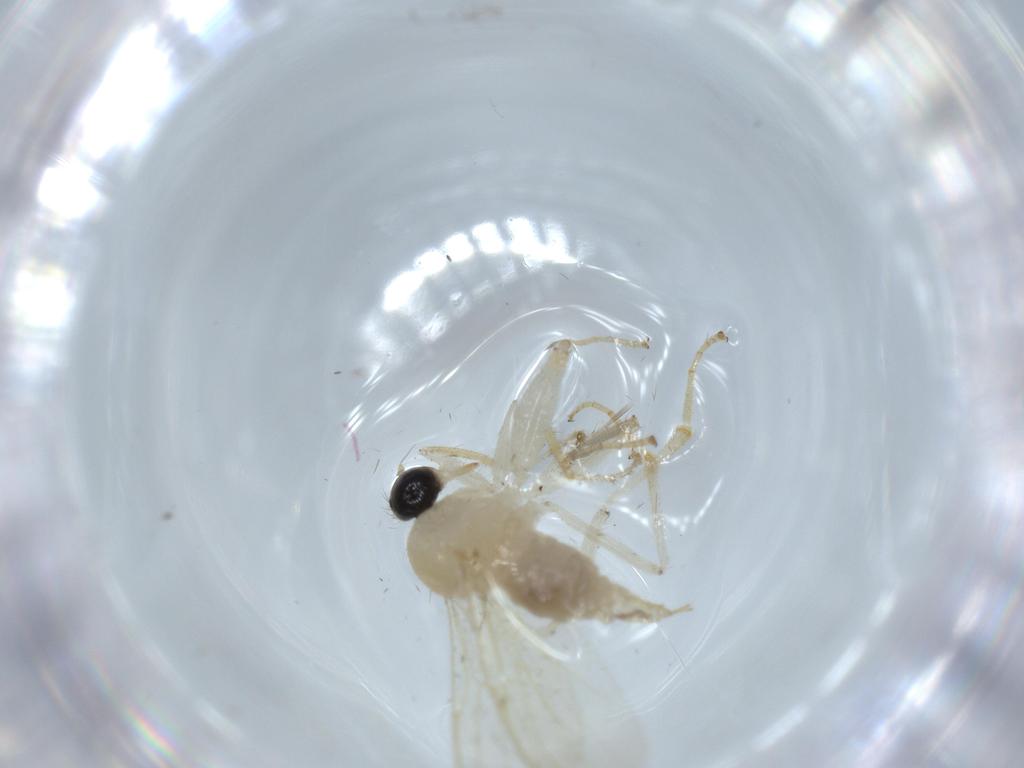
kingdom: Animalia
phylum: Arthropoda
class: Insecta
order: Diptera
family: Hybotidae
